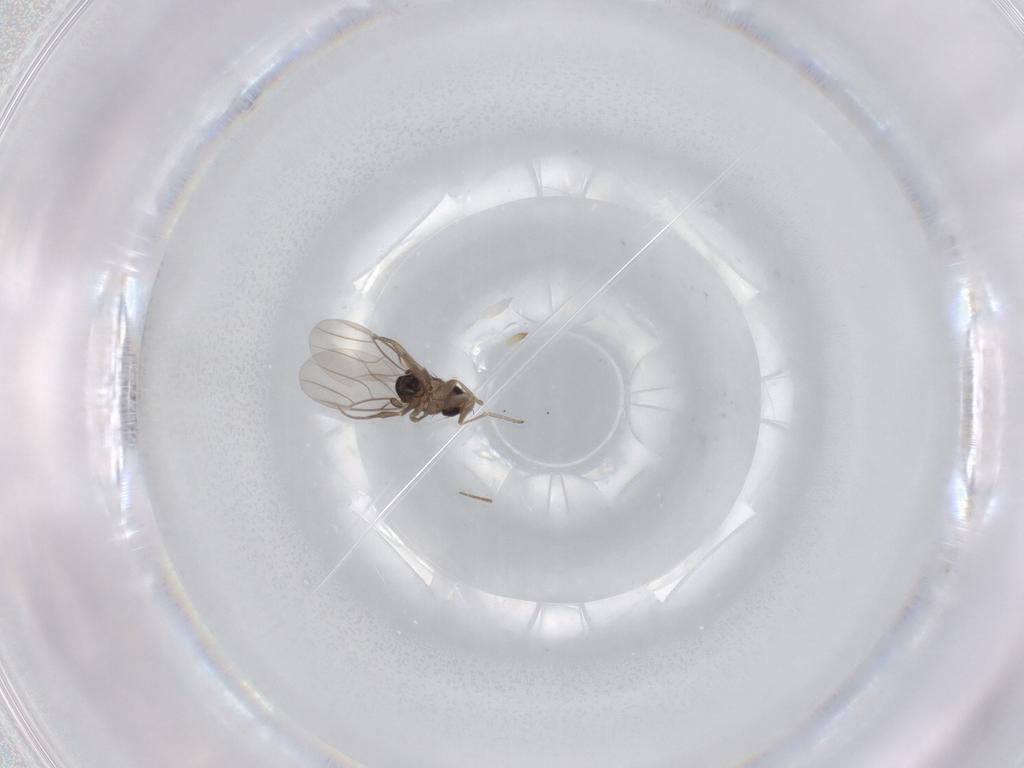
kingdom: Animalia
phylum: Arthropoda
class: Insecta
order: Diptera
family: Phoridae
